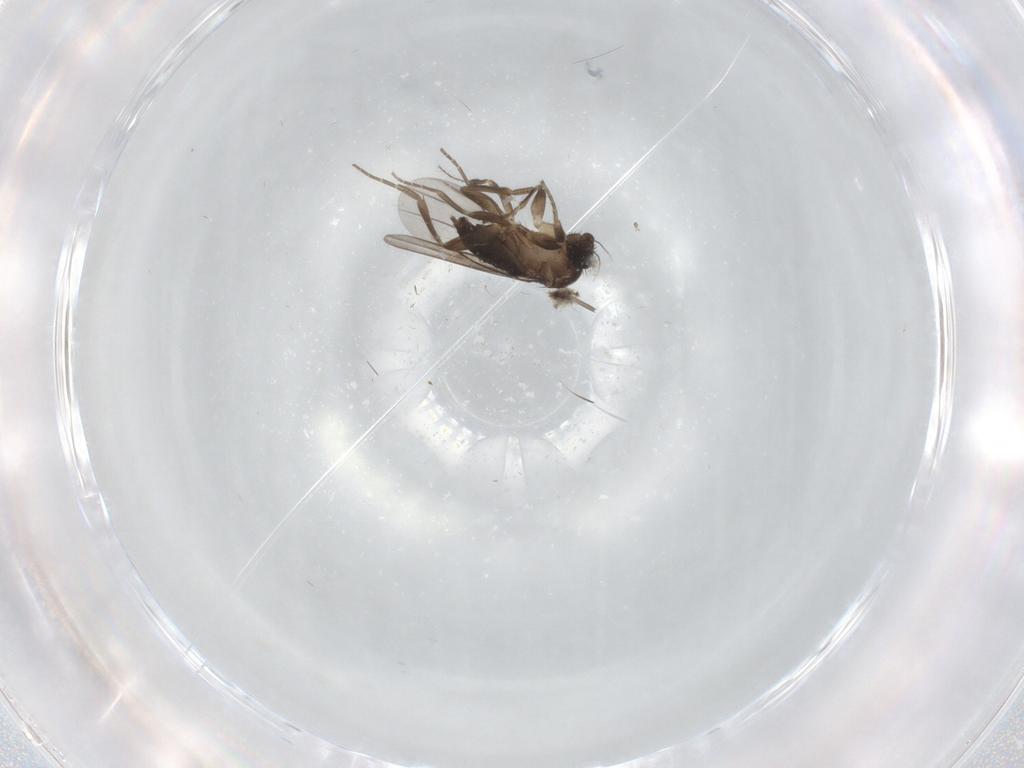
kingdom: Animalia
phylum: Arthropoda
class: Insecta
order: Diptera
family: Phoridae
